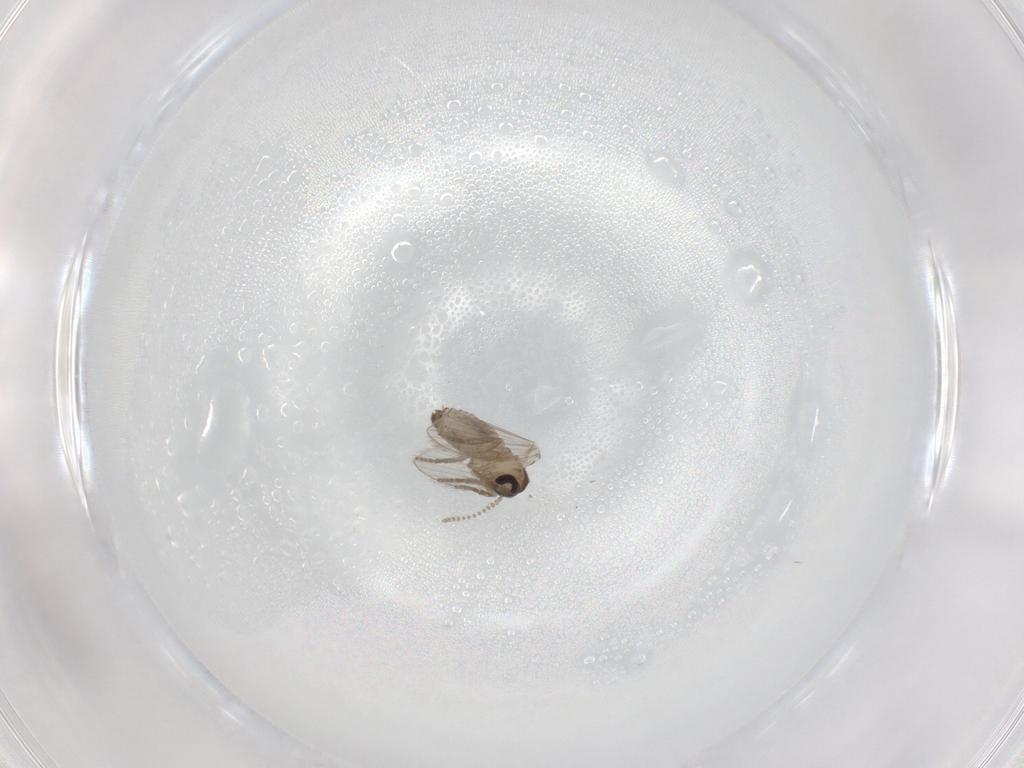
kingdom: Animalia
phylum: Arthropoda
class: Insecta
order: Diptera
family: Psychodidae
